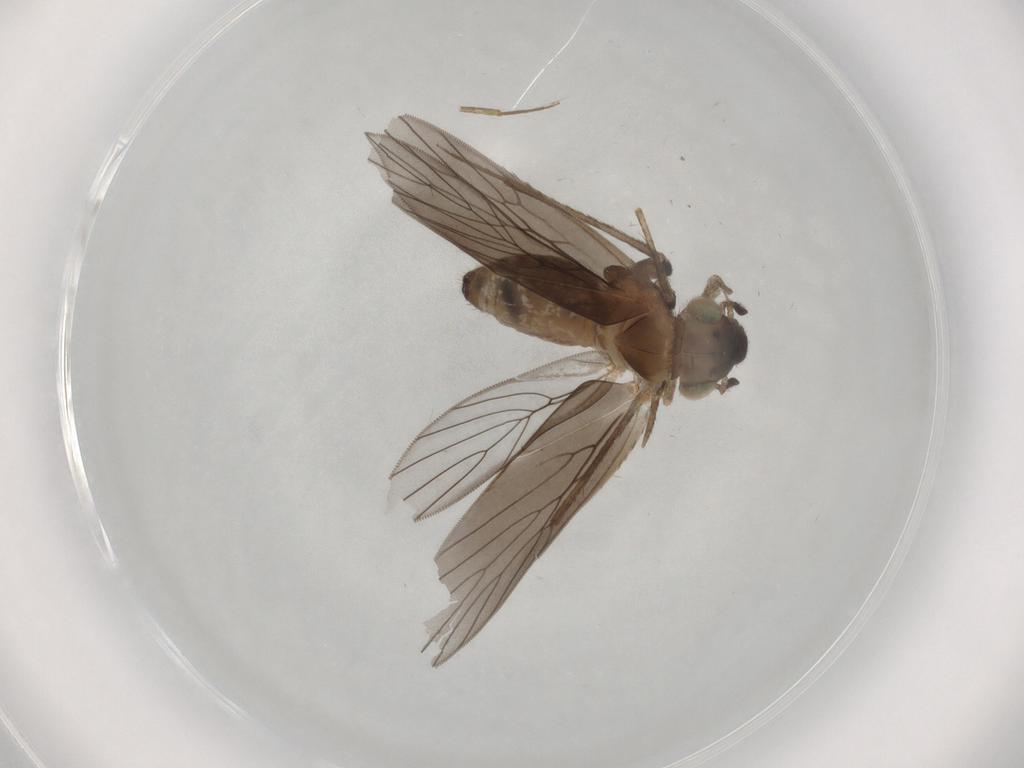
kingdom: Animalia
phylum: Arthropoda
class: Insecta
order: Psocodea
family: Lepidopsocidae
